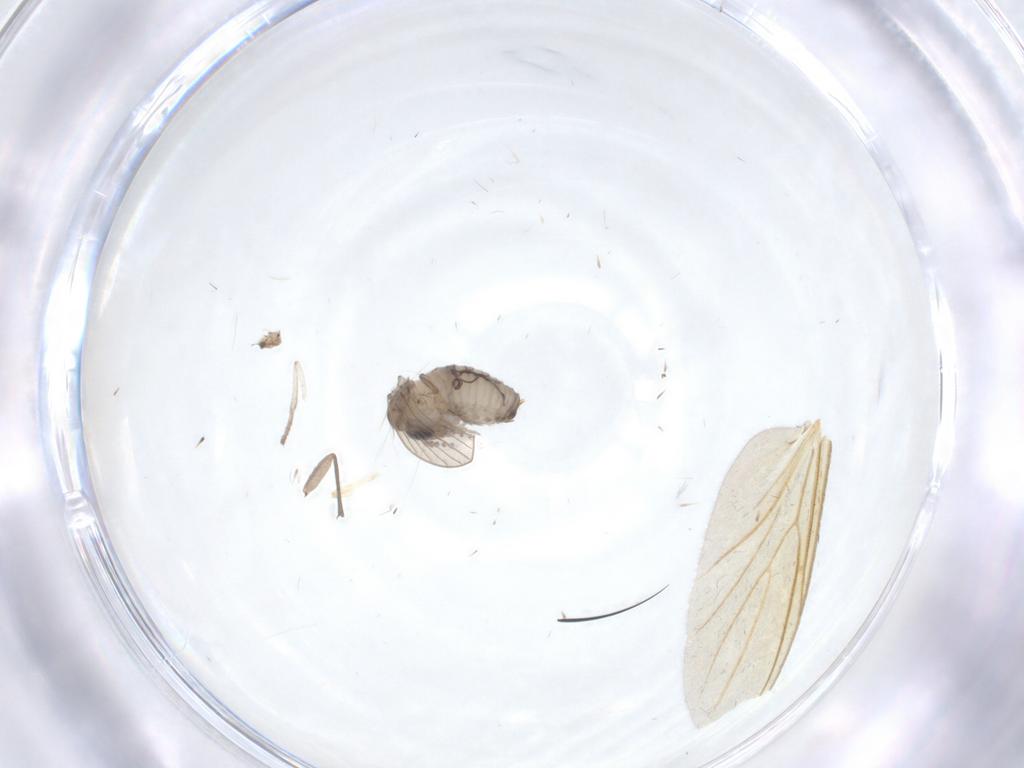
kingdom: Animalia
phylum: Arthropoda
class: Insecta
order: Diptera
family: Psychodidae
